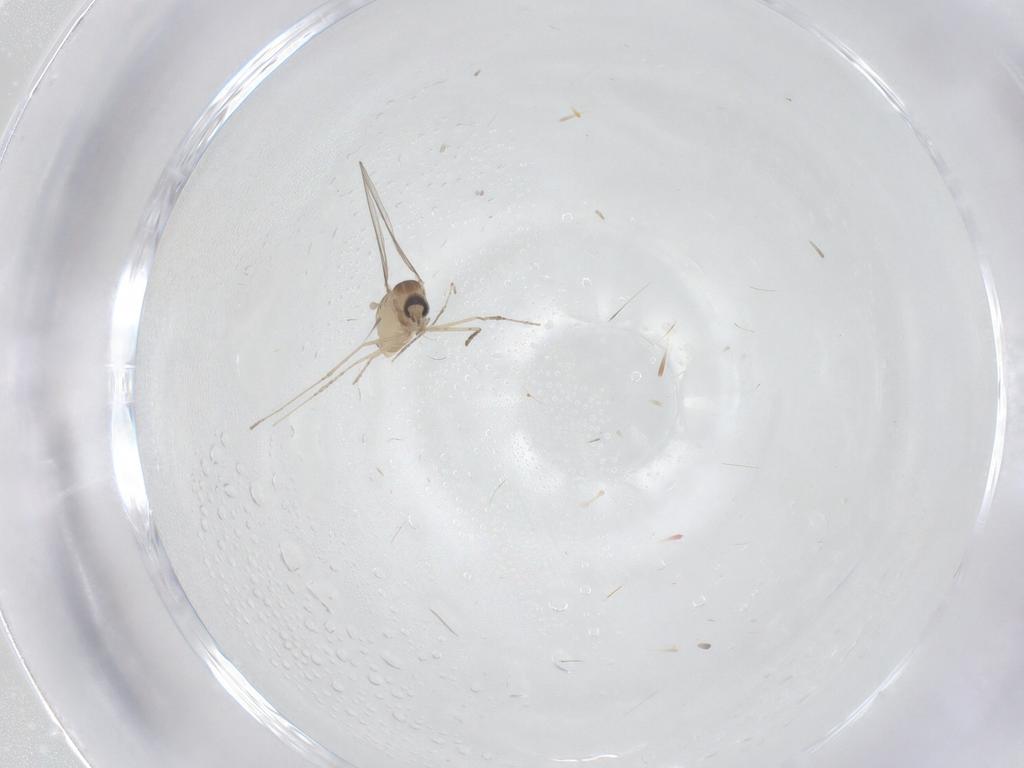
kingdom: Animalia
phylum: Arthropoda
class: Insecta
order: Diptera
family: Cecidomyiidae
